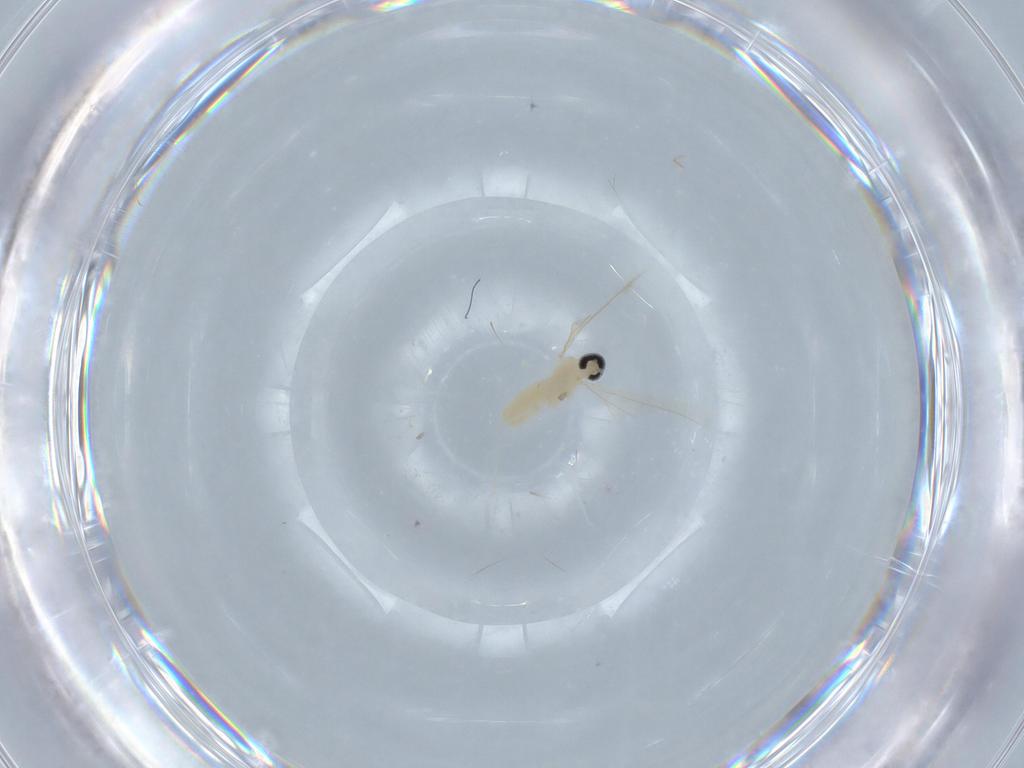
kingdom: Animalia
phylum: Arthropoda
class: Insecta
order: Diptera
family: Cecidomyiidae
